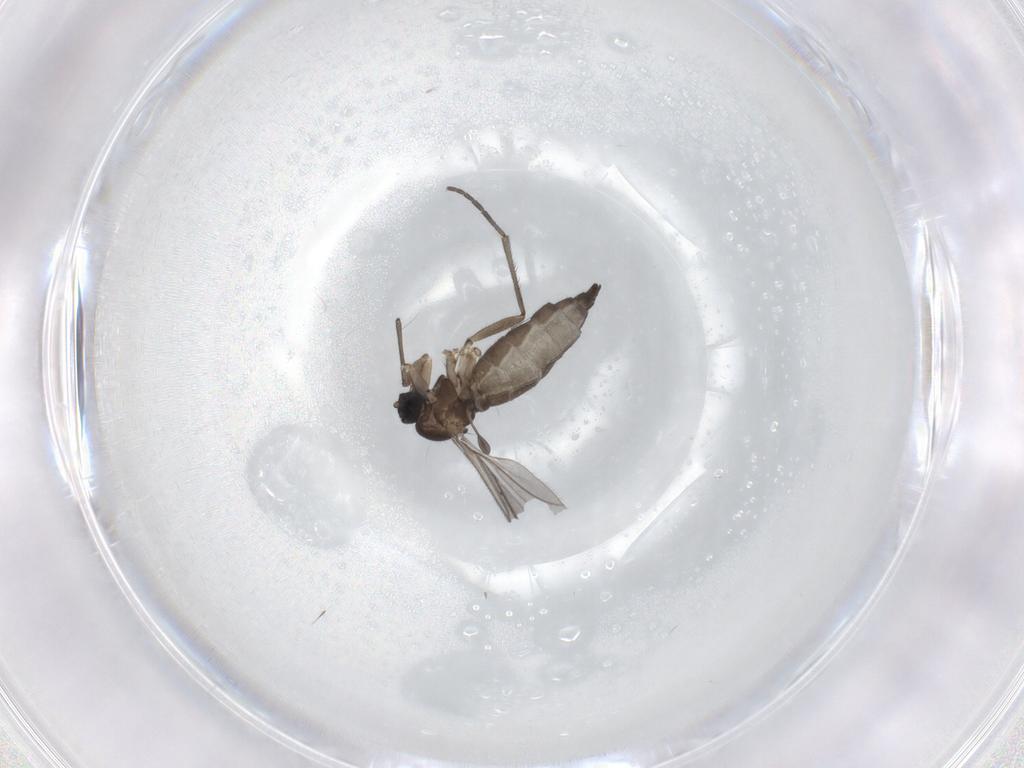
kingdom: Animalia
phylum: Arthropoda
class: Insecta
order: Diptera
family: Sciaridae
